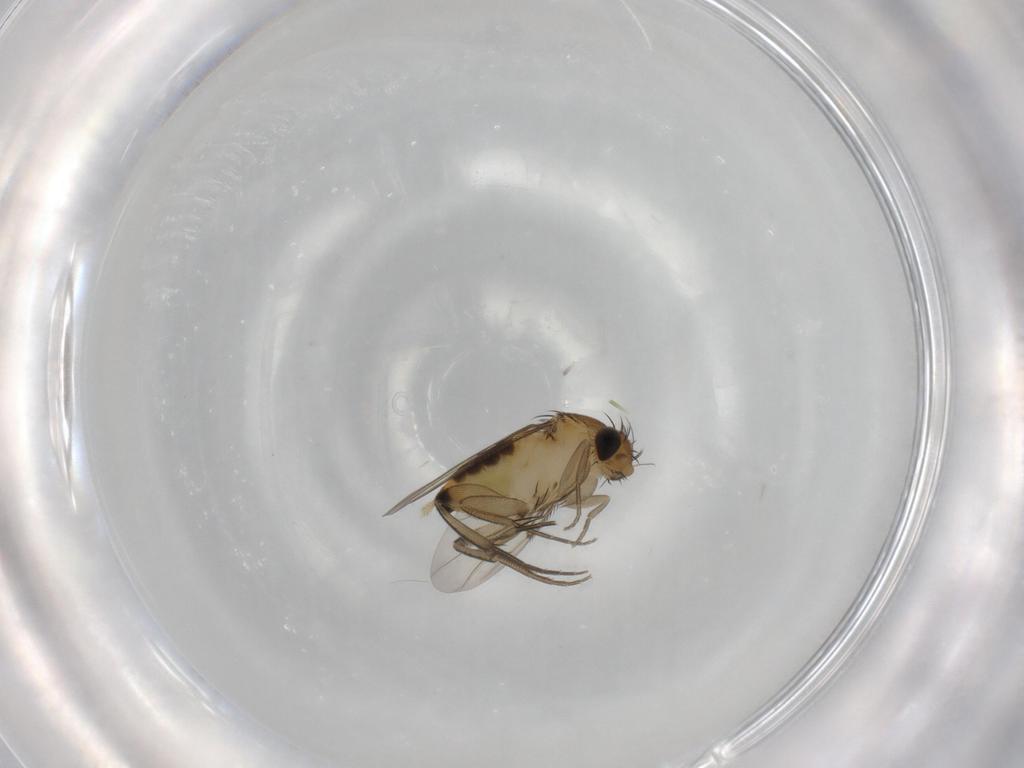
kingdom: Animalia
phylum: Arthropoda
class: Insecta
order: Diptera
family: Phoridae
